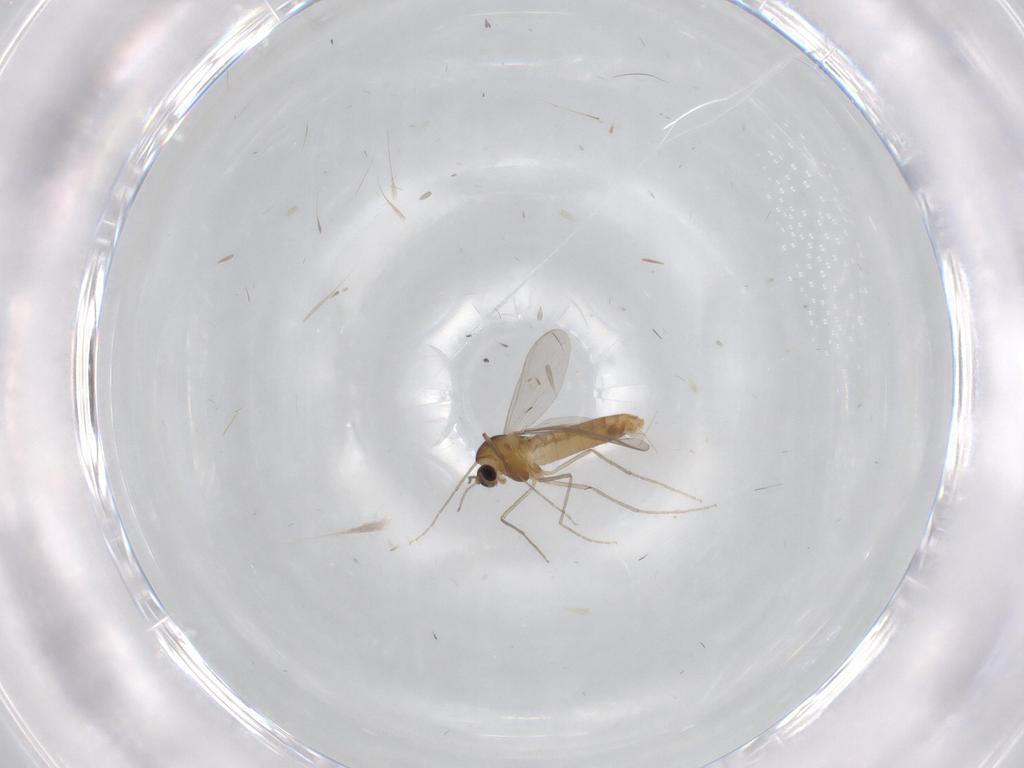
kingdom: Animalia
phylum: Arthropoda
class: Insecta
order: Diptera
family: Chironomidae
